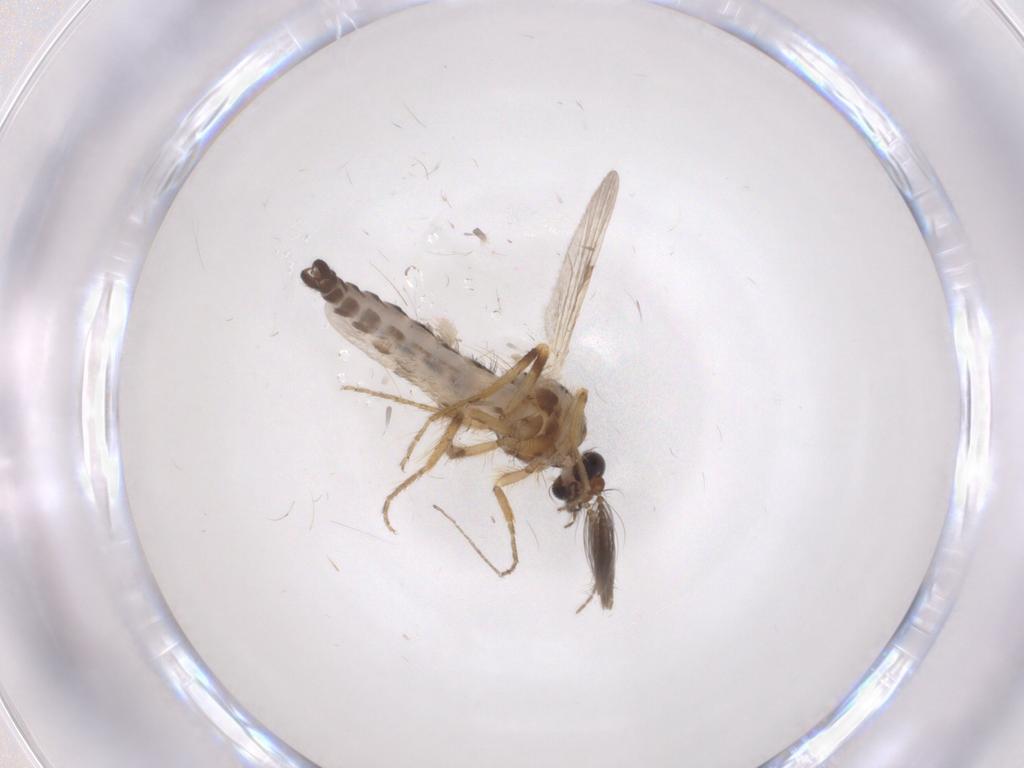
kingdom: Animalia
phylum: Arthropoda
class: Insecta
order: Diptera
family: Ceratopogonidae
